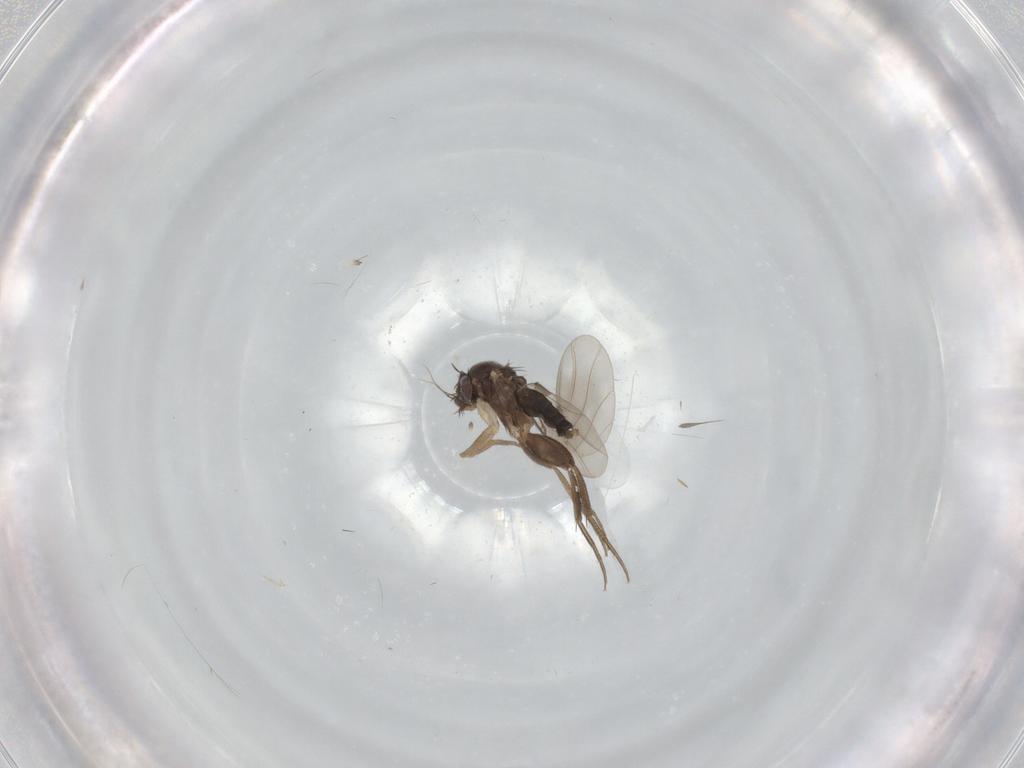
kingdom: Animalia
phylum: Arthropoda
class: Insecta
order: Diptera
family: Phoridae
